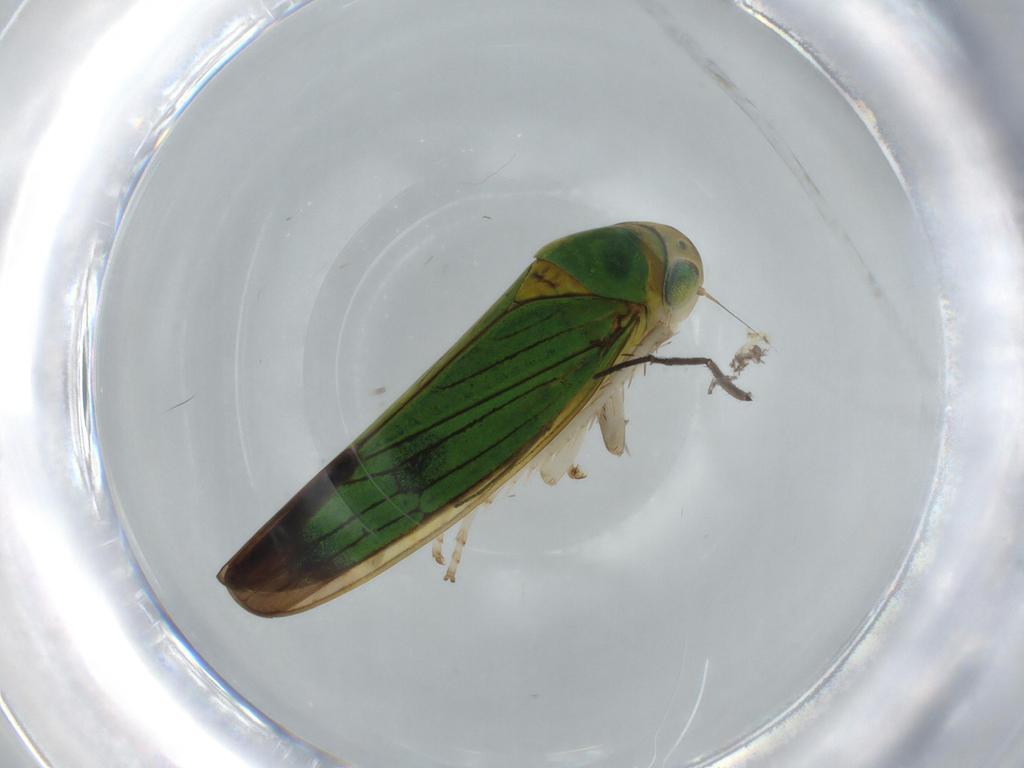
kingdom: Animalia
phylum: Arthropoda
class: Insecta
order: Hemiptera
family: Cicadellidae
